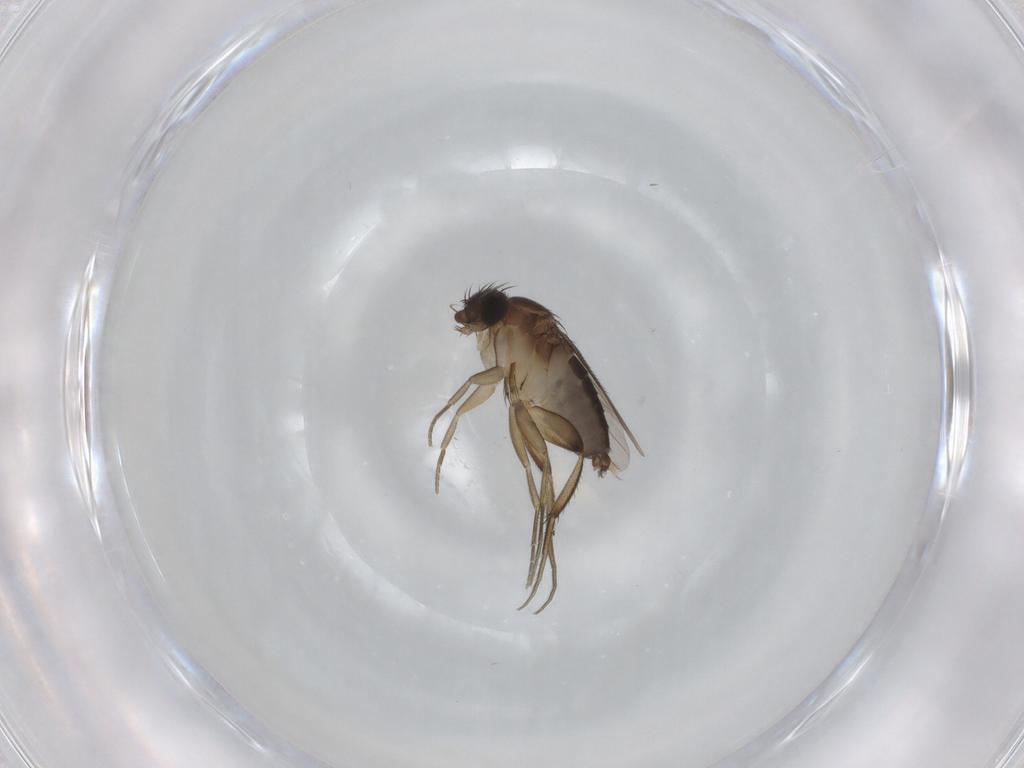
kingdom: Animalia
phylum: Arthropoda
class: Insecta
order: Diptera
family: Phoridae
